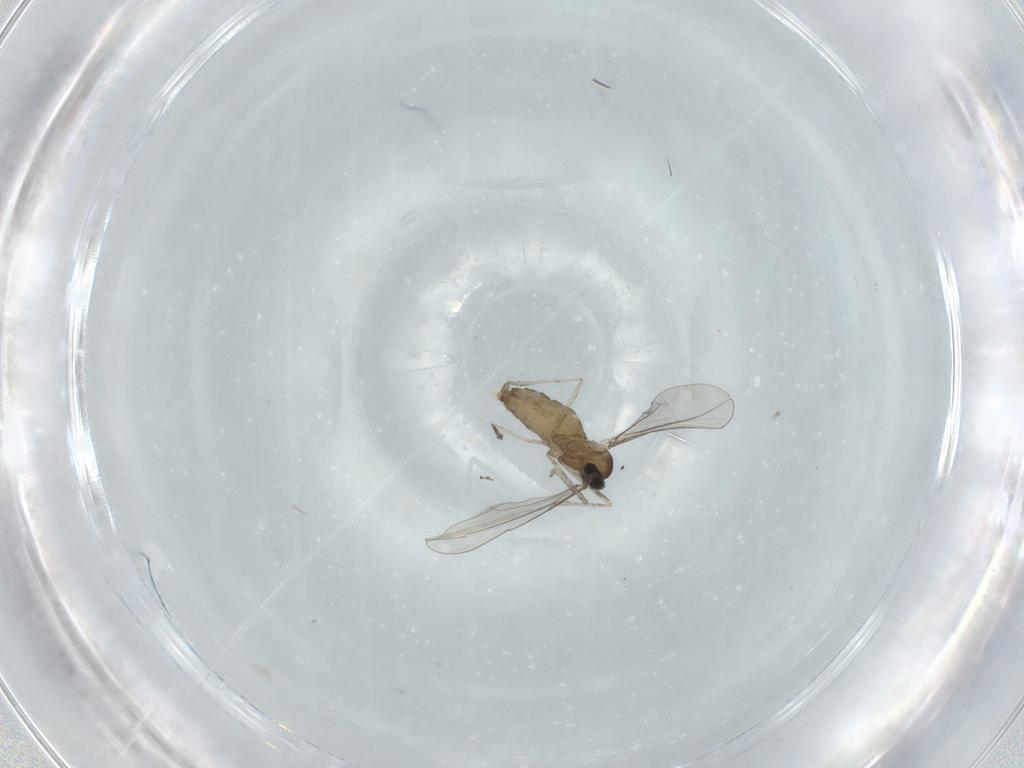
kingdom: Animalia
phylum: Arthropoda
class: Insecta
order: Diptera
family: Cecidomyiidae
